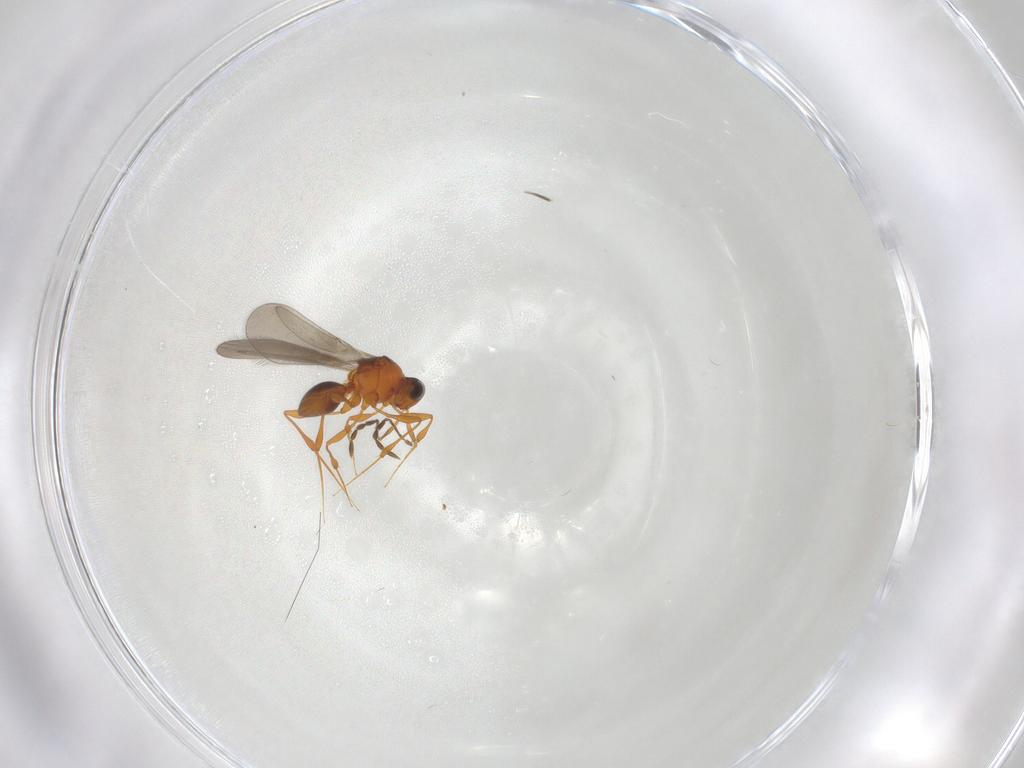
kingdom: Animalia
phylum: Arthropoda
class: Insecta
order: Hymenoptera
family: Platygastridae
